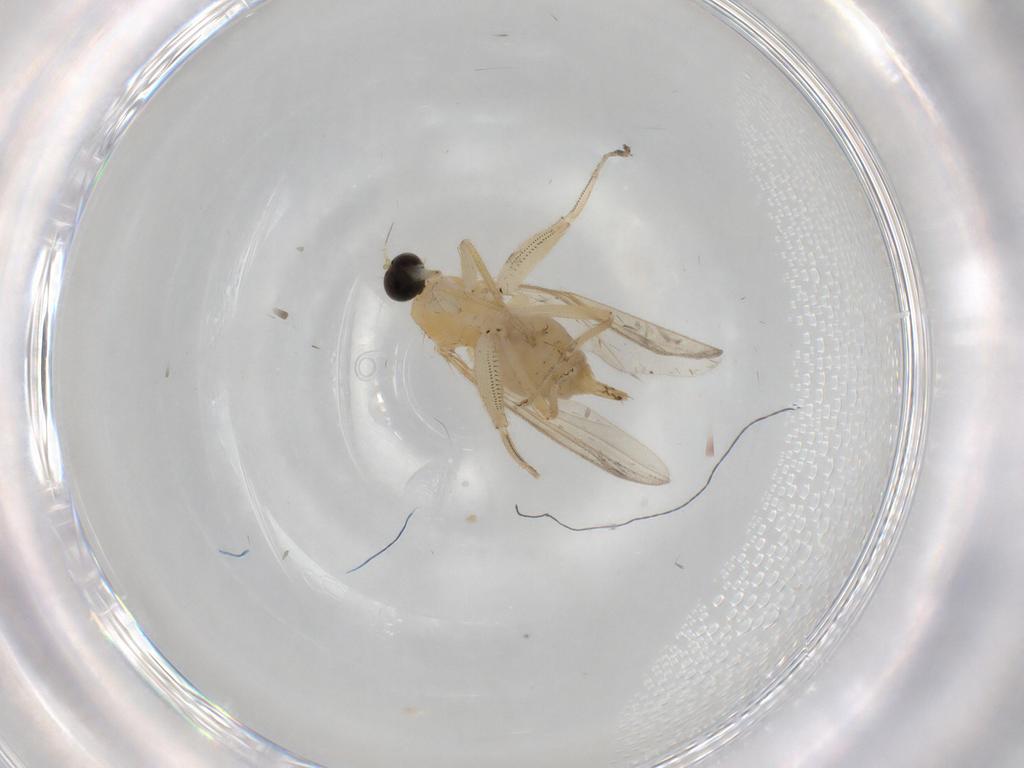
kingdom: Animalia
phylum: Arthropoda
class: Insecta
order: Diptera
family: Hybotidae
